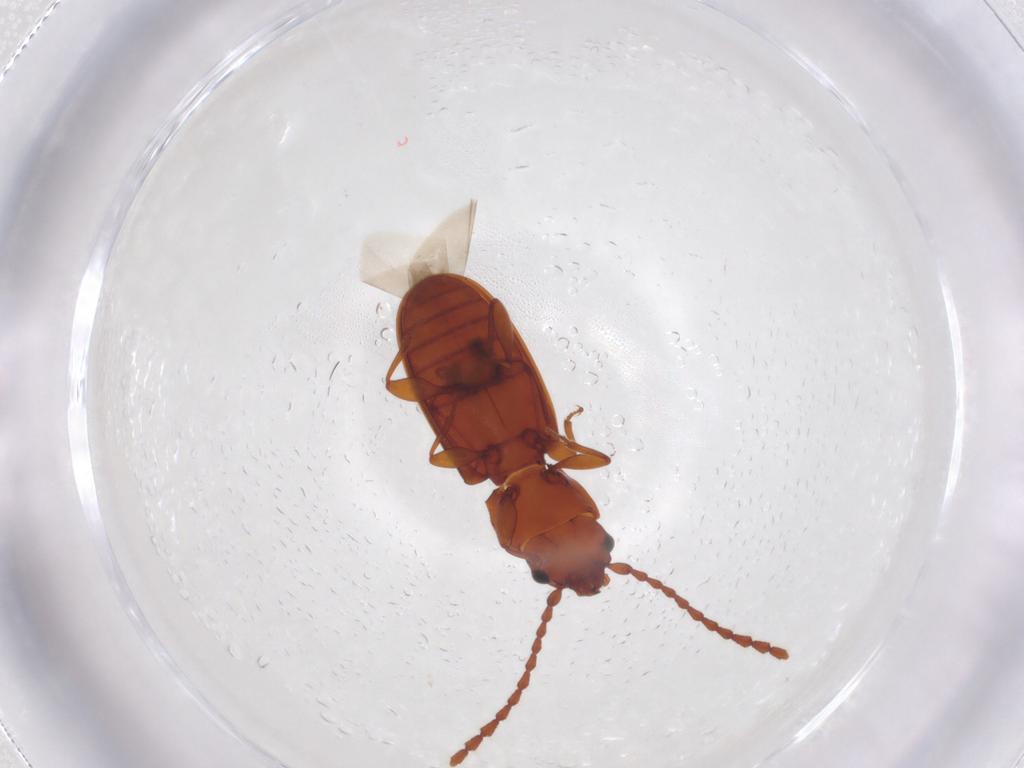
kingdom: Animalia
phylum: Arthropoda
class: Insecta
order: Coleoptera
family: Laemophloeidae
